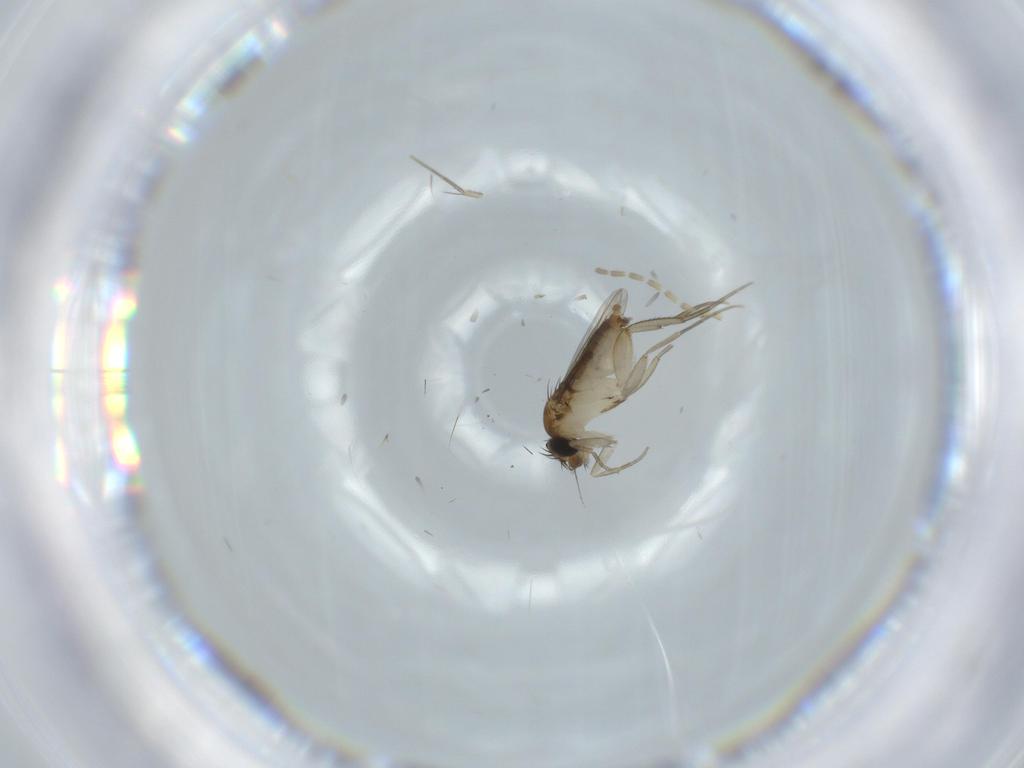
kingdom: Animalia
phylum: Arthropoda
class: Insecta
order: Diptera
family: Phoridae
